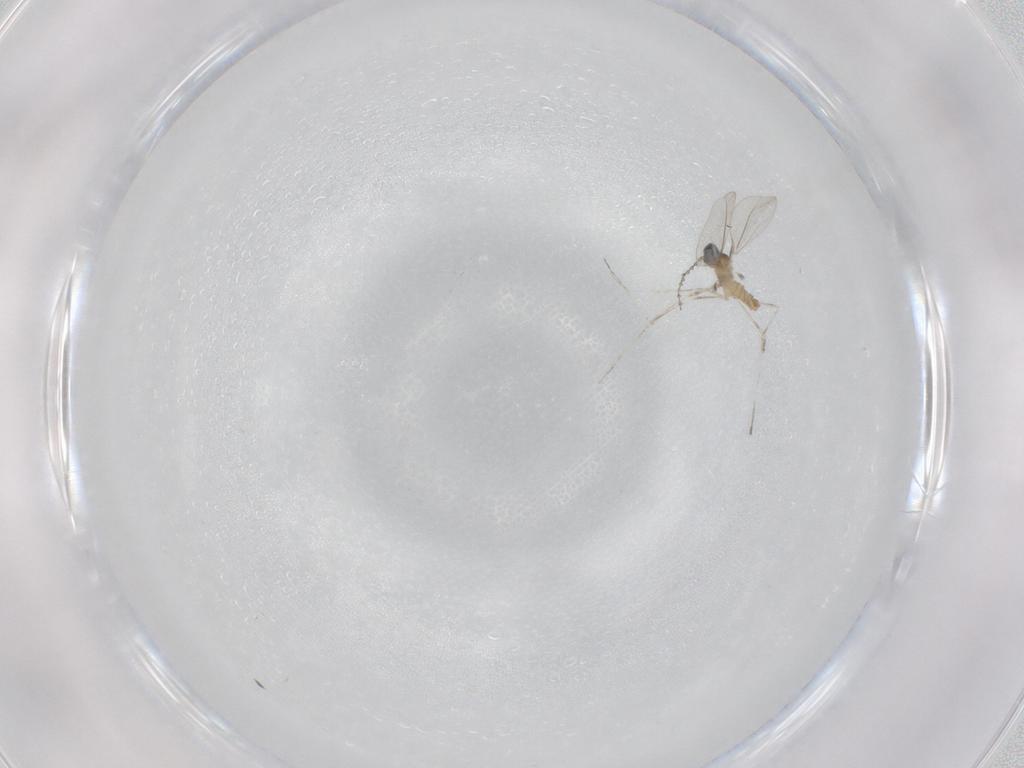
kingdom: Animalia
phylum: Arthropoda
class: Insecta
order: Diptera
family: Cecidomyiidae
